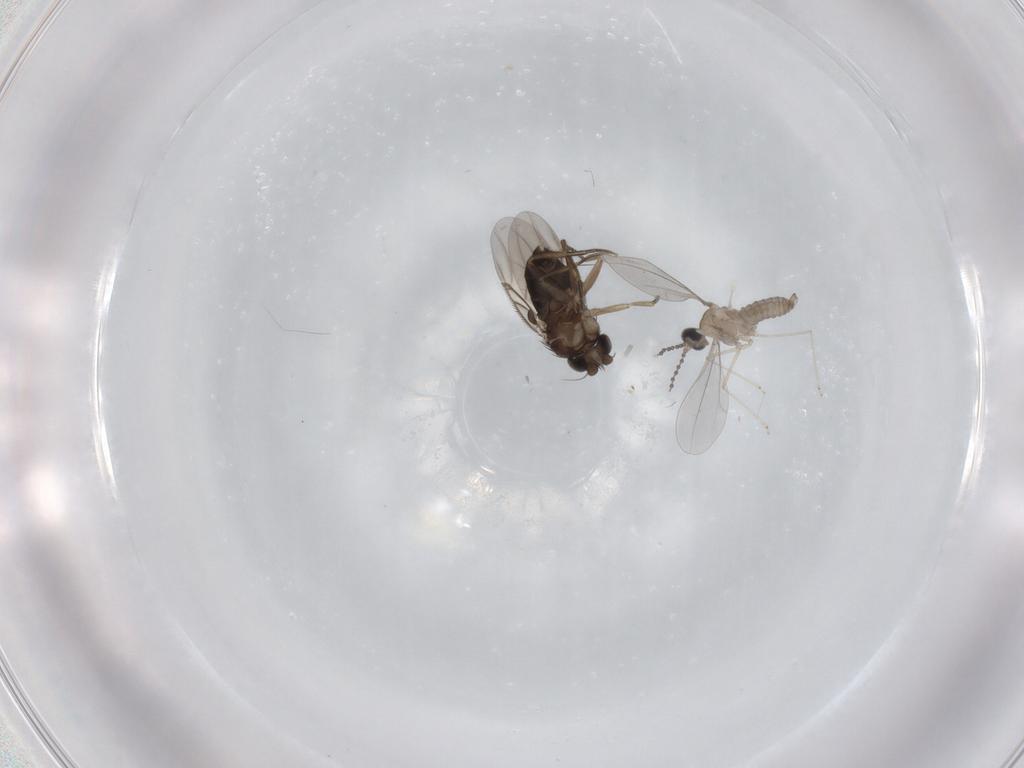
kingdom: Animalia
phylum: Arthropoda
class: Insecta
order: Diptera
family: Phoridae
